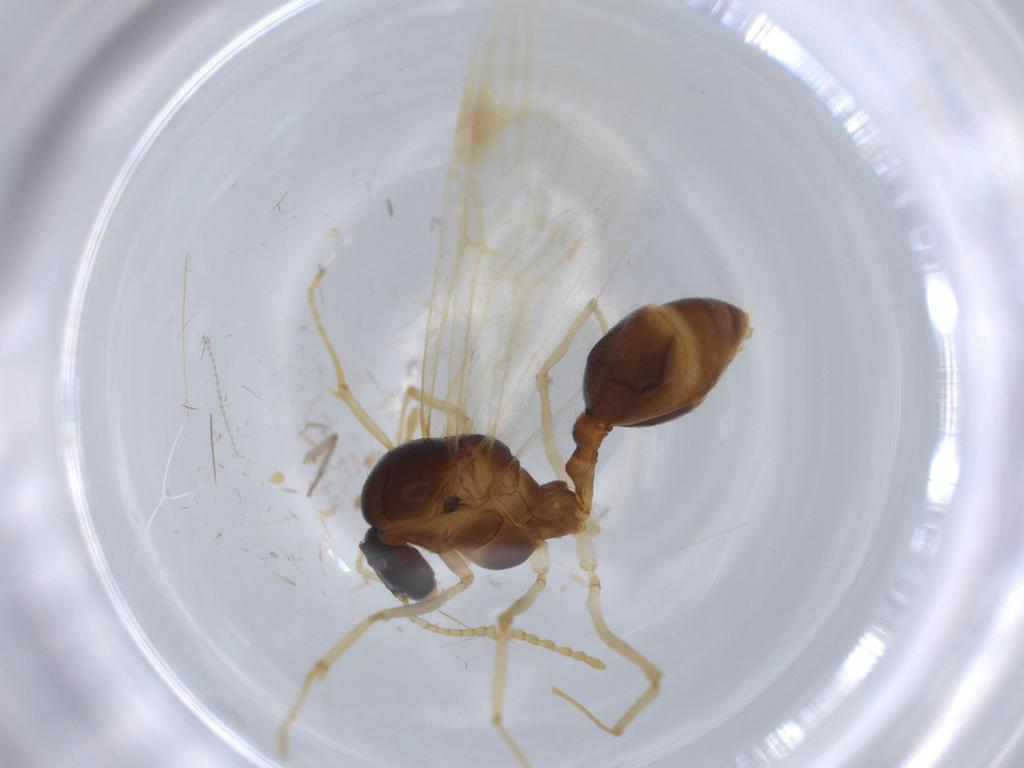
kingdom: Animalia
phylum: Arthropoda
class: Insecta
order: Hymenoptera
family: Formicidae
